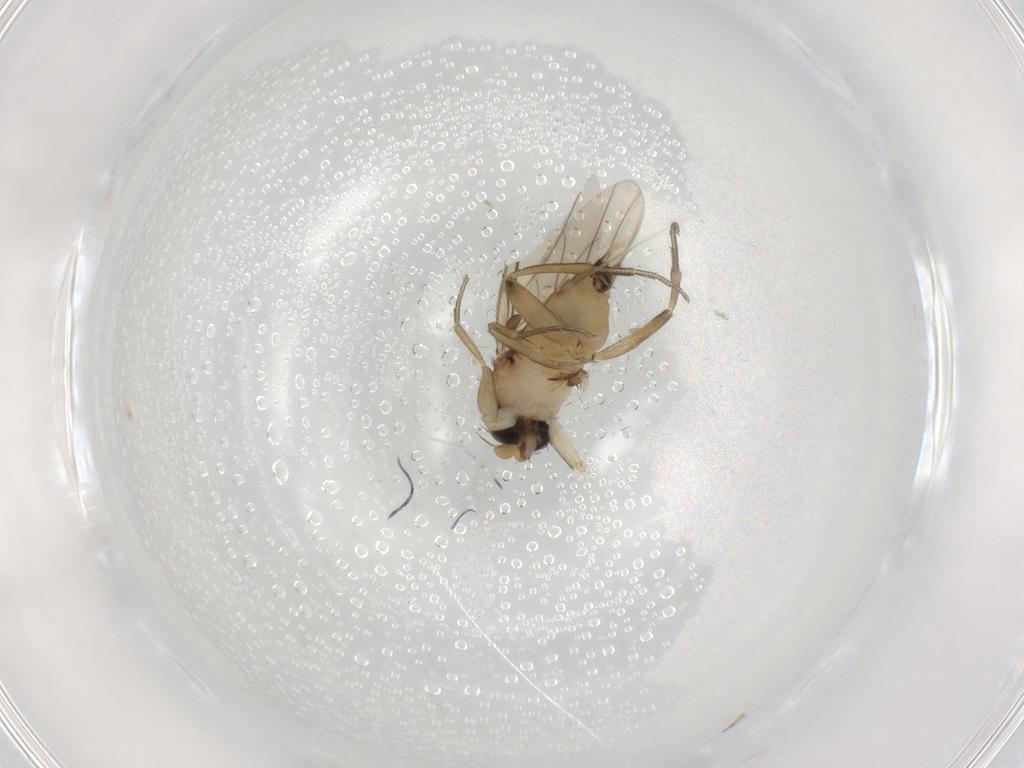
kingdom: Animalia
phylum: Arthropoda
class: Insecta
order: Diptera
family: Phoridae
